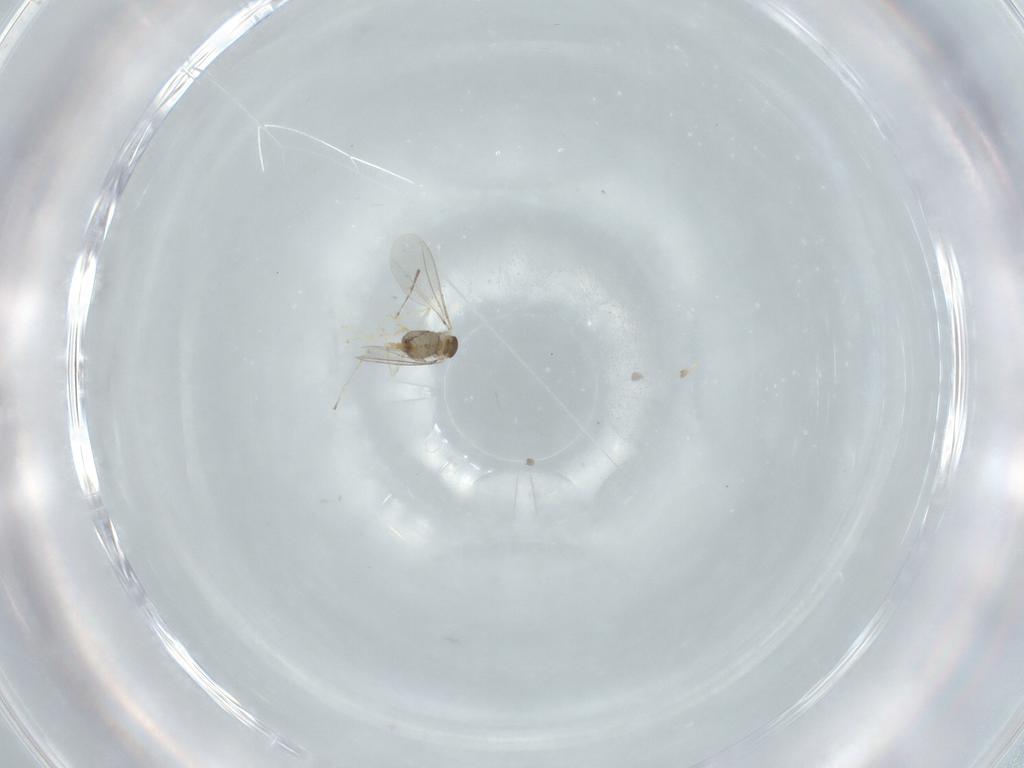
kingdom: Animalia
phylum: Arthropoda
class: Insecta
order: Diptera
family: Cecidomyiidae
